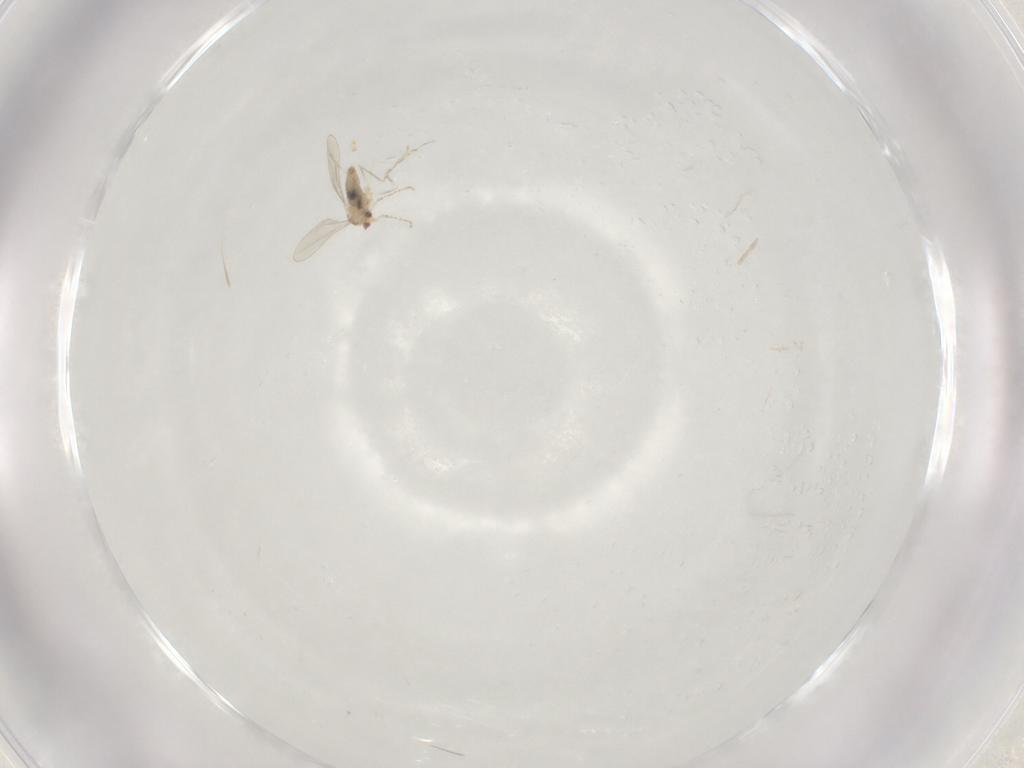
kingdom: Animalia
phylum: Arthropoda
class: Insecta
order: Diptera
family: Cecidomyiidae
